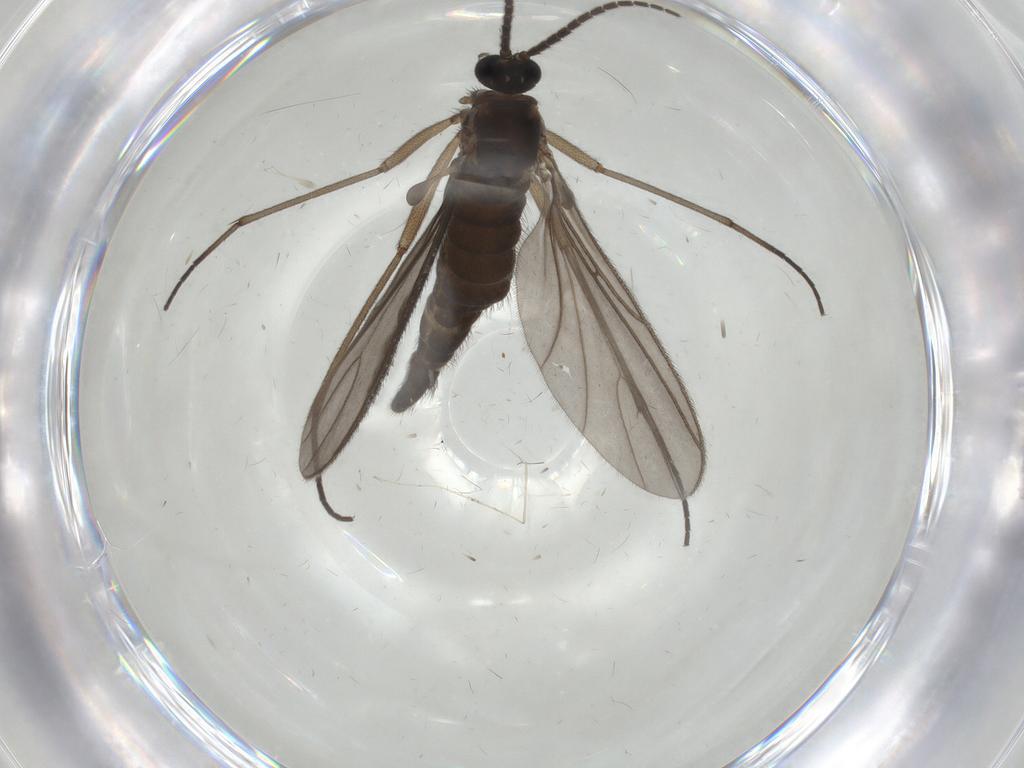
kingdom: Animalia
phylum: Arthropoda
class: Insecta
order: Diptera
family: Sciaridae
